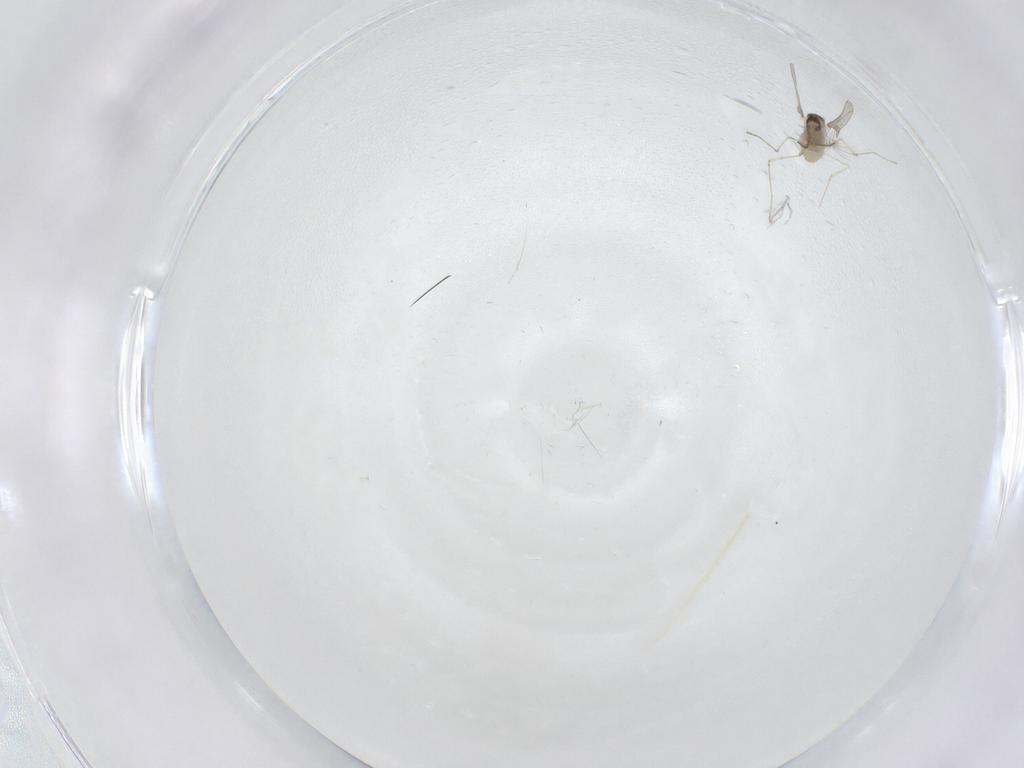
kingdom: Animalia
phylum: Arthropoda
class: Insecta
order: Diptera
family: Cecidomyiidae
